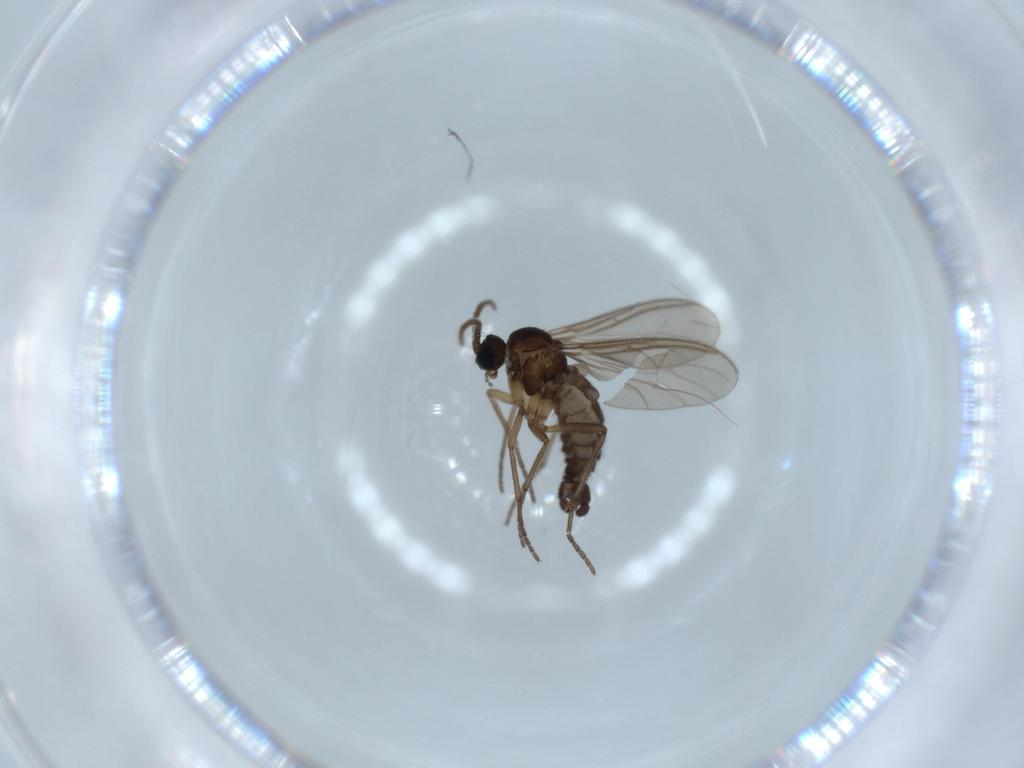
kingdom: Animalia
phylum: Arthropoda
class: Insecta
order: Diptera
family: Sciaridae
